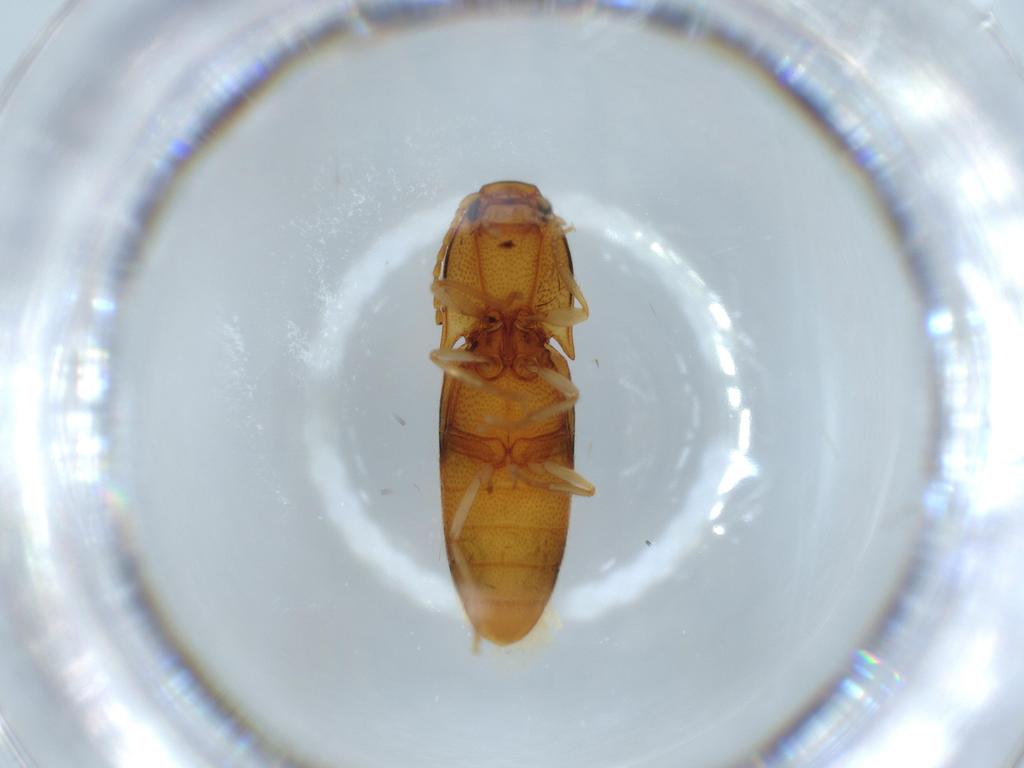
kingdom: Animalia
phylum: Arthropoda
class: Insecta
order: Coleoptera
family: Elateridae
